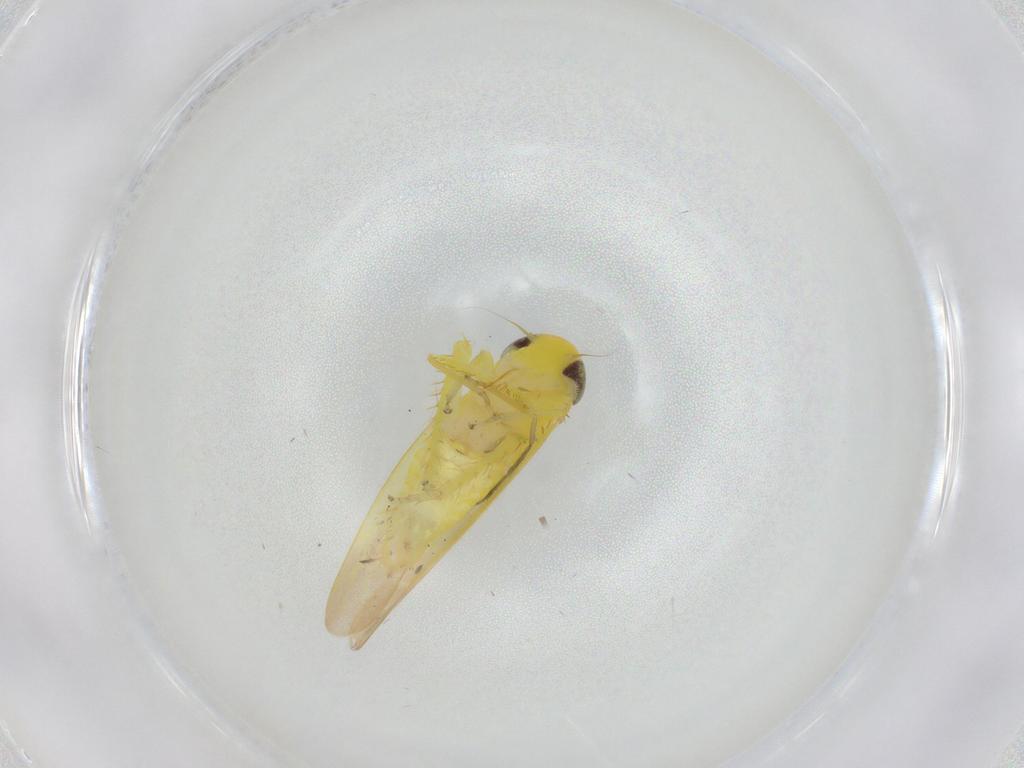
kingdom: Animalia
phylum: Arthropoda
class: Insecta
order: Hemiptera
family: Cicadellidae
